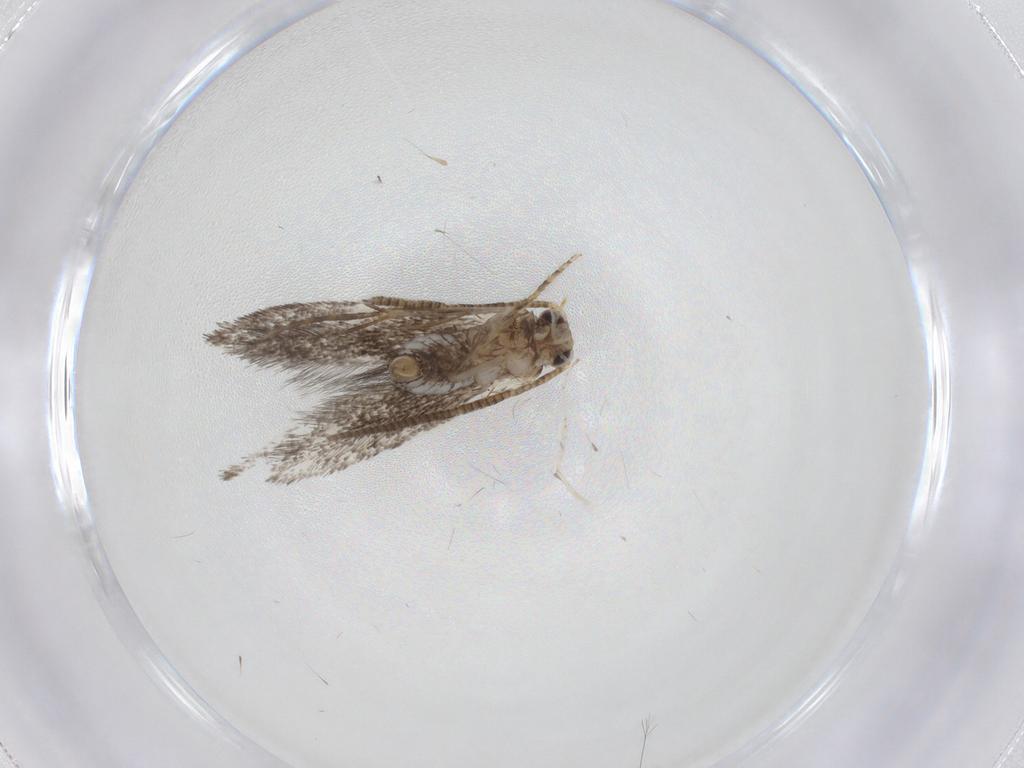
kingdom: Animalia
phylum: Arthropoda
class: Insecta
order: Lepidoptera
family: Tineidae
